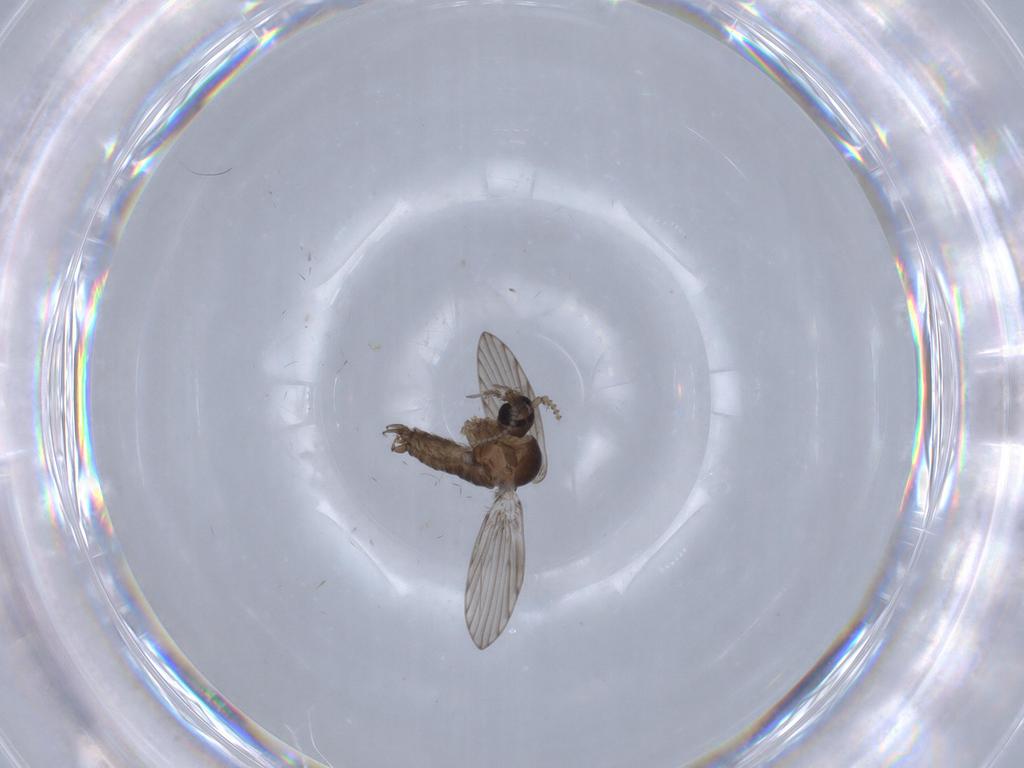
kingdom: Animalia
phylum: Arthropoda
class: Insecta
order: Diptera
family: Psychodidae
